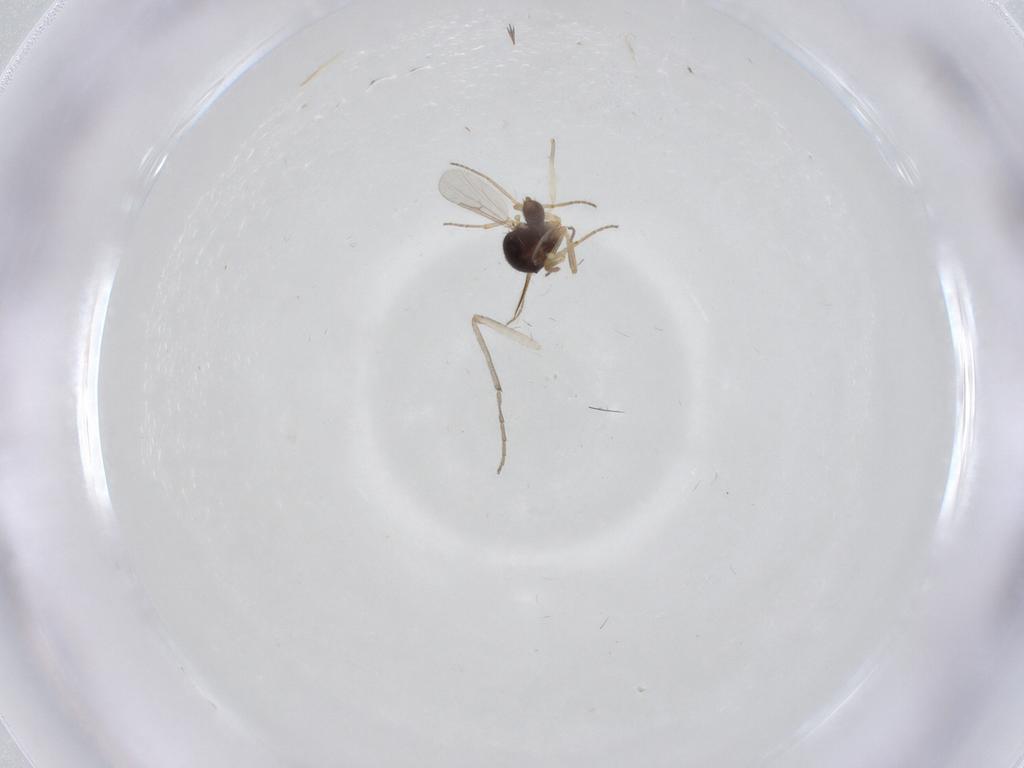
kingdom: Animalia
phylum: Arthropoda
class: Insecta
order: Diptera
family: Ceratopogonidae
